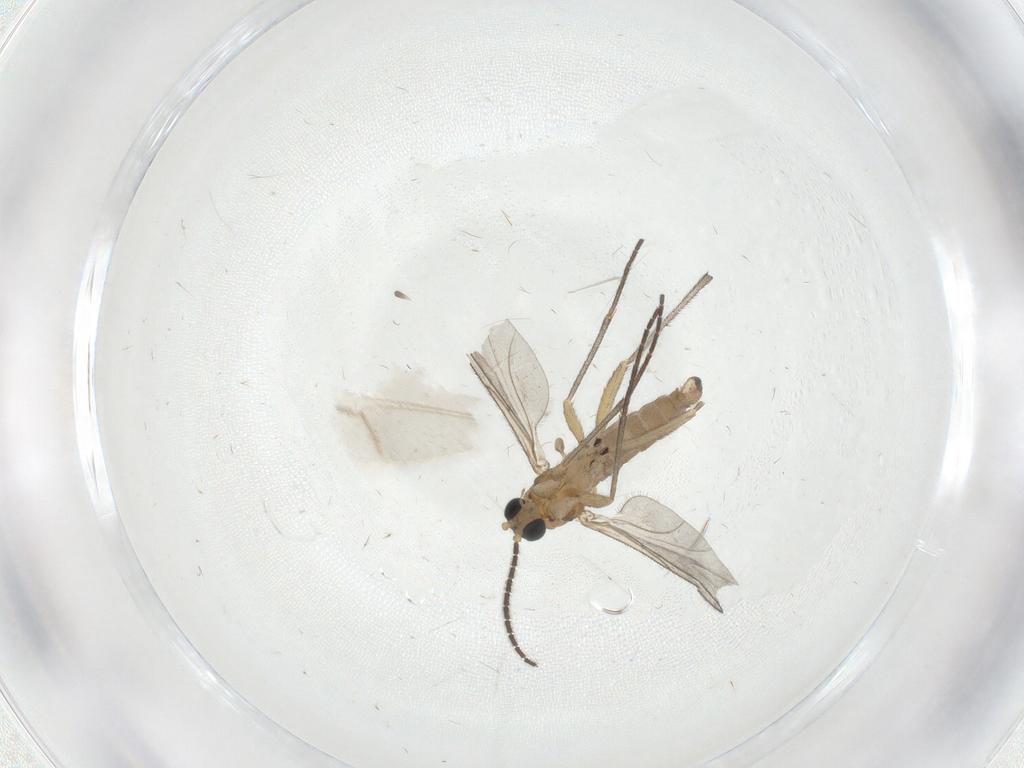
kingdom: Animalia
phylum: Arthropoda
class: Insecta
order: Diptera
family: Sciaridae
